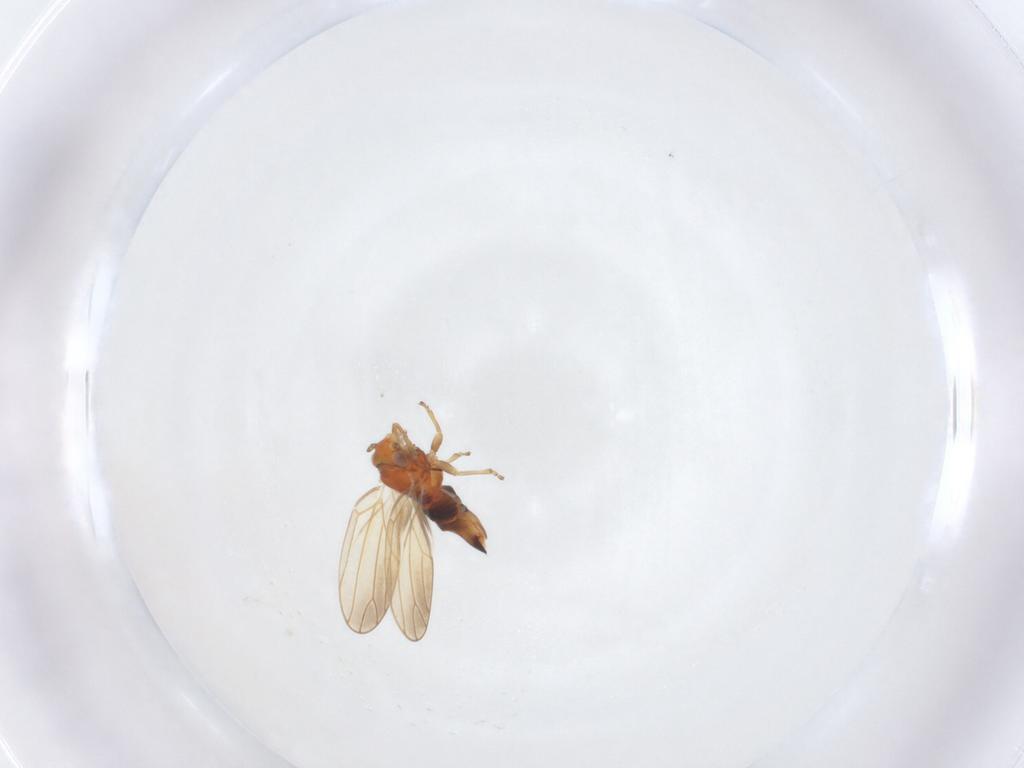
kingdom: Animalia
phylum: Arthropoda
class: Insecta
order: Hemiptera
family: Aphalaridae
